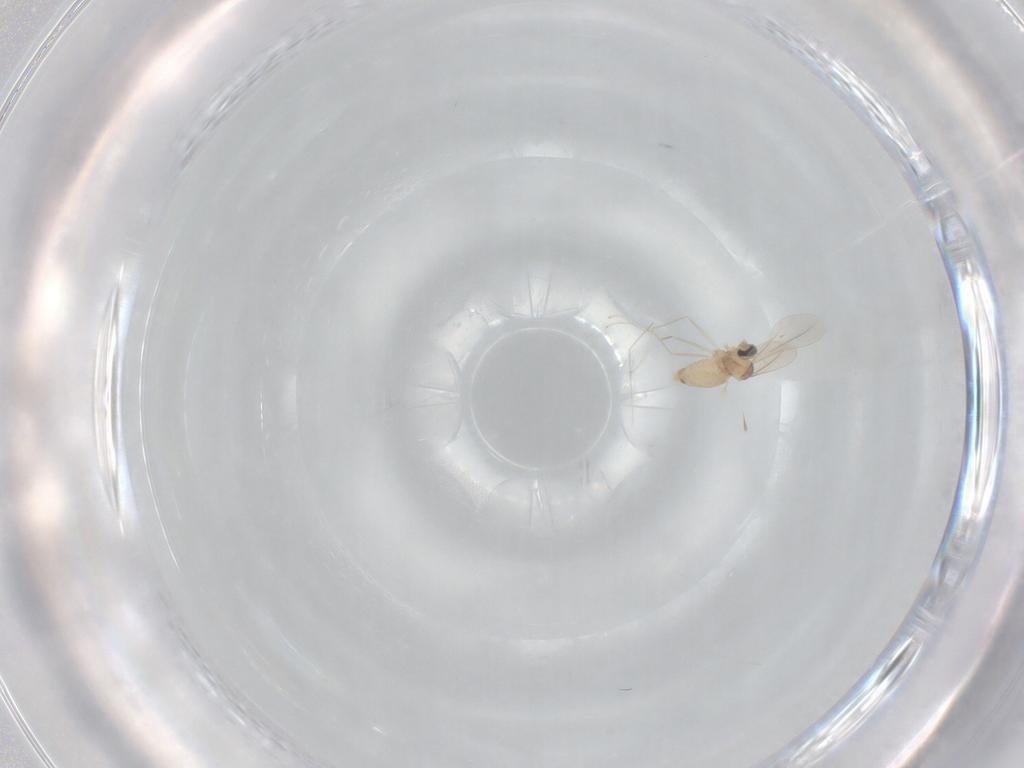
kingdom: Animalia
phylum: Arthropoda
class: Insecta
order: Diptera
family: Cecidomyiidae
